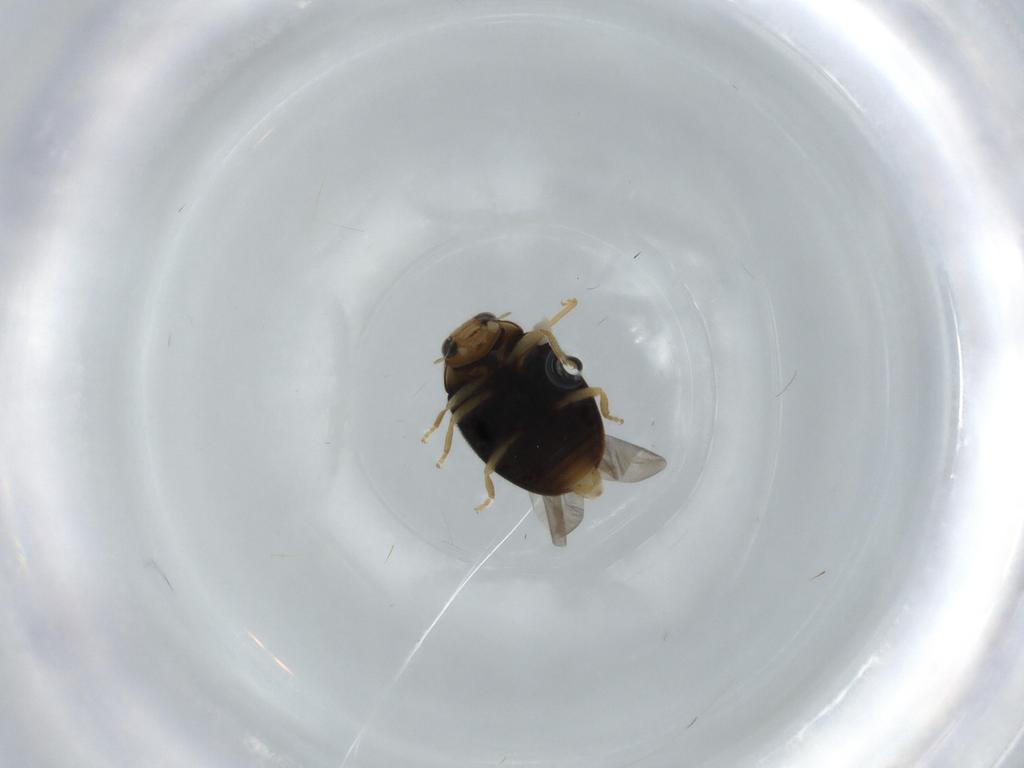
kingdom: Animalia
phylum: Arthropoda
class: Insecta
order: Coleoptera
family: Coccinellidae
